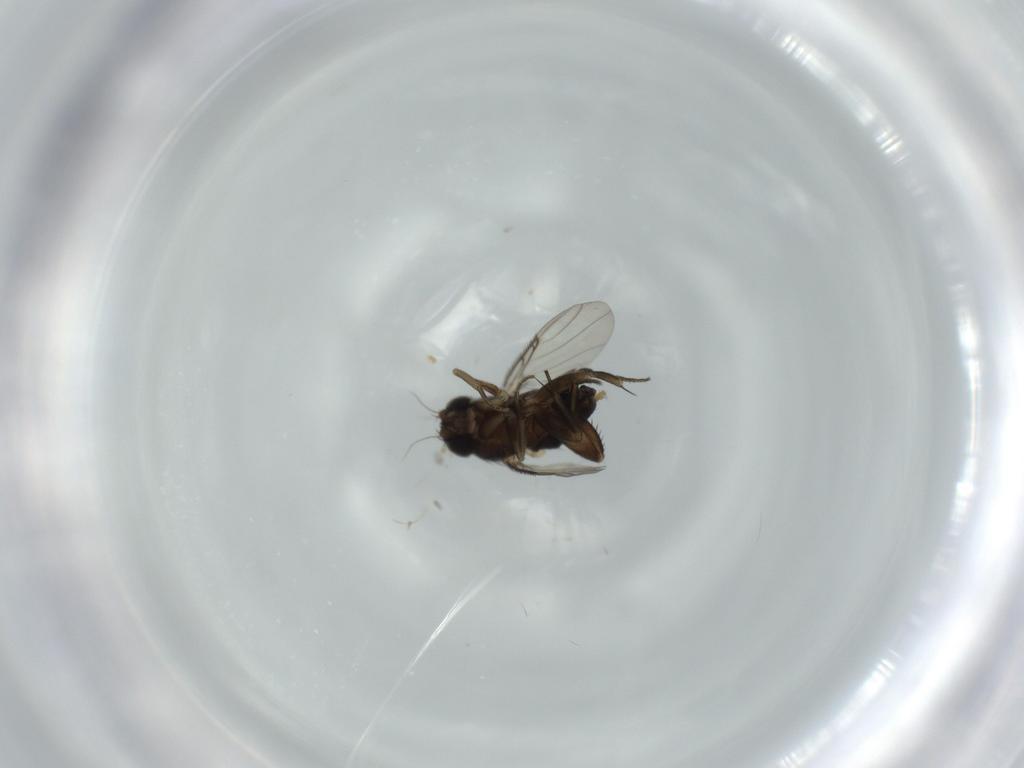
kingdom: Animalia
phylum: Arthropoda
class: Insecta
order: Diptera
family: Phoridae
